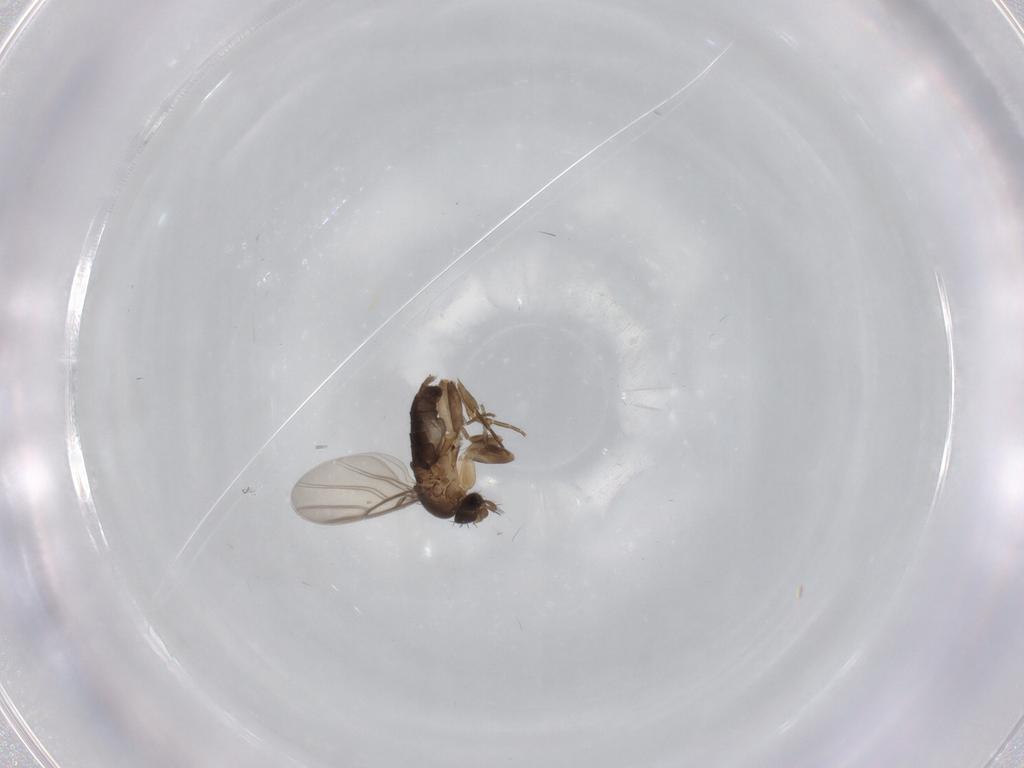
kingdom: Animalia
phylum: Arthropoda
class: Insecta
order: Diptera
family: Phoridae
